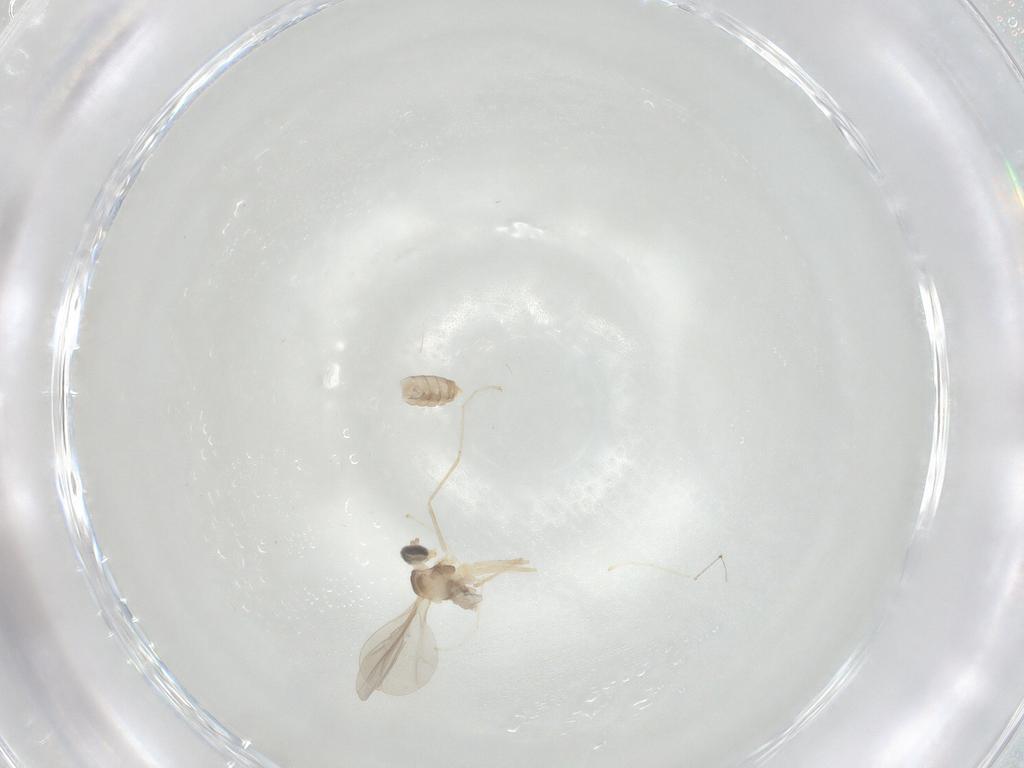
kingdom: Animalia
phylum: Arthropoda
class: Insecta
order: Diptera
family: Cecidomyiidae
